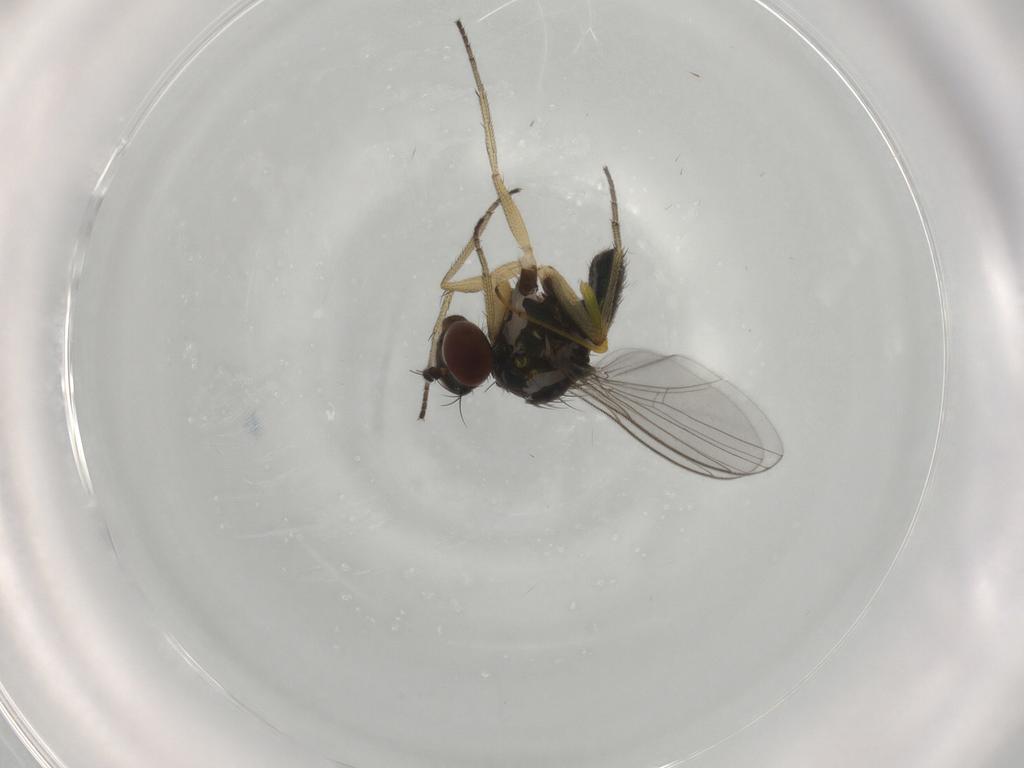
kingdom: Animalia
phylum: Arthropoda
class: Insecta
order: Diptera
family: Dolichopodidae
